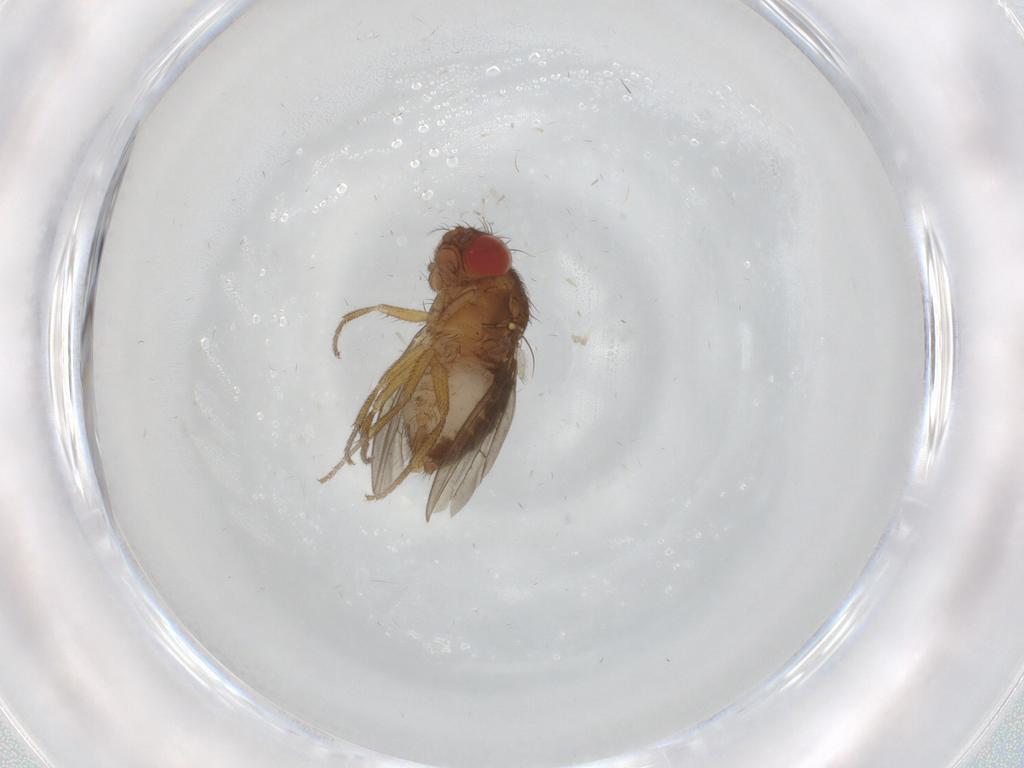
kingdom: Animalia
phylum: Arthropoda
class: Insecta
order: Diptera
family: Drosophilidae
